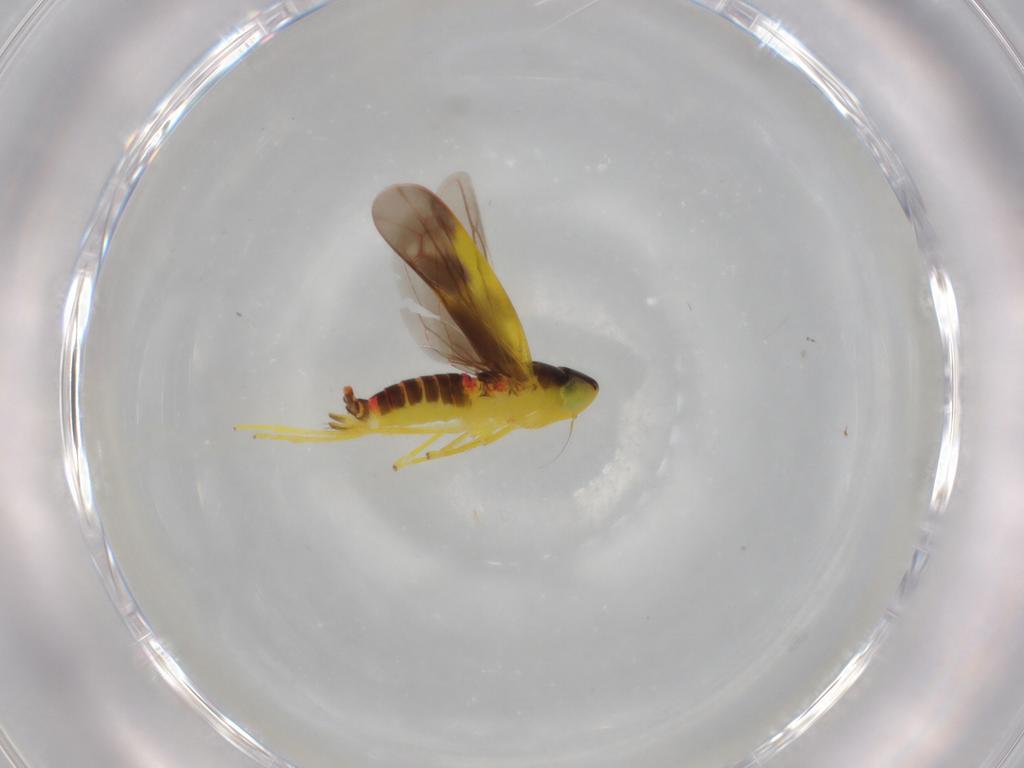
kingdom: Animalia
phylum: Arthropoda
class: Insecta
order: Hemiptera
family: Cicadellidae
